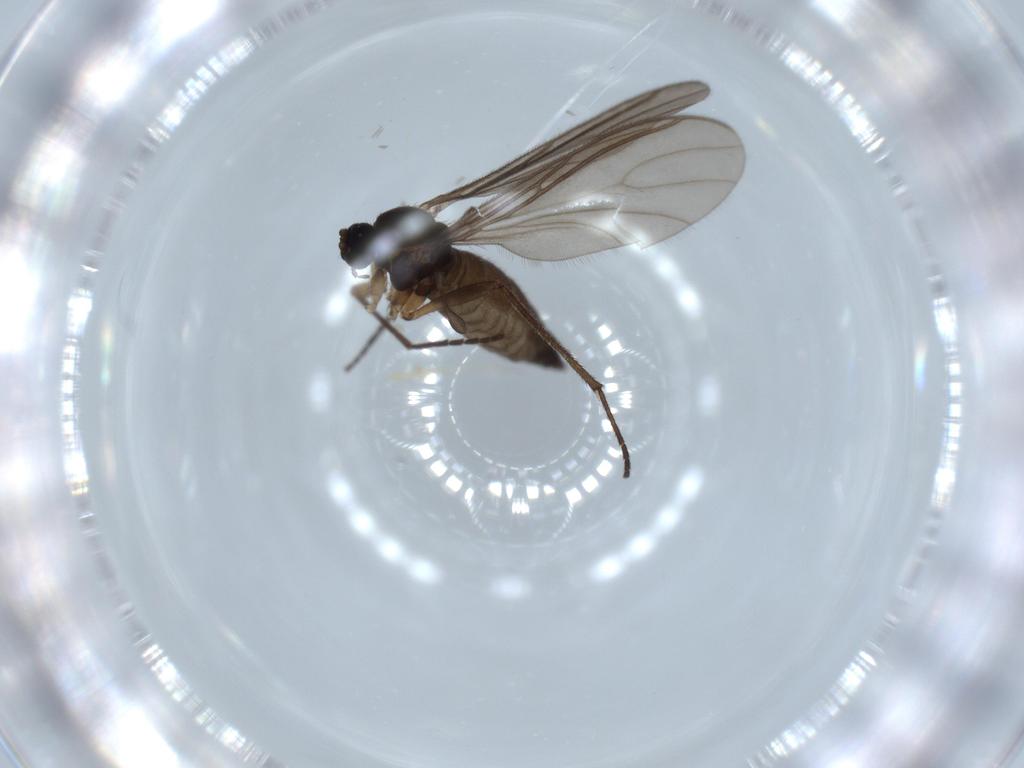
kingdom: Animalia
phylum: Arthropoda
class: Insecta
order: Diptera
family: Sciaridae
